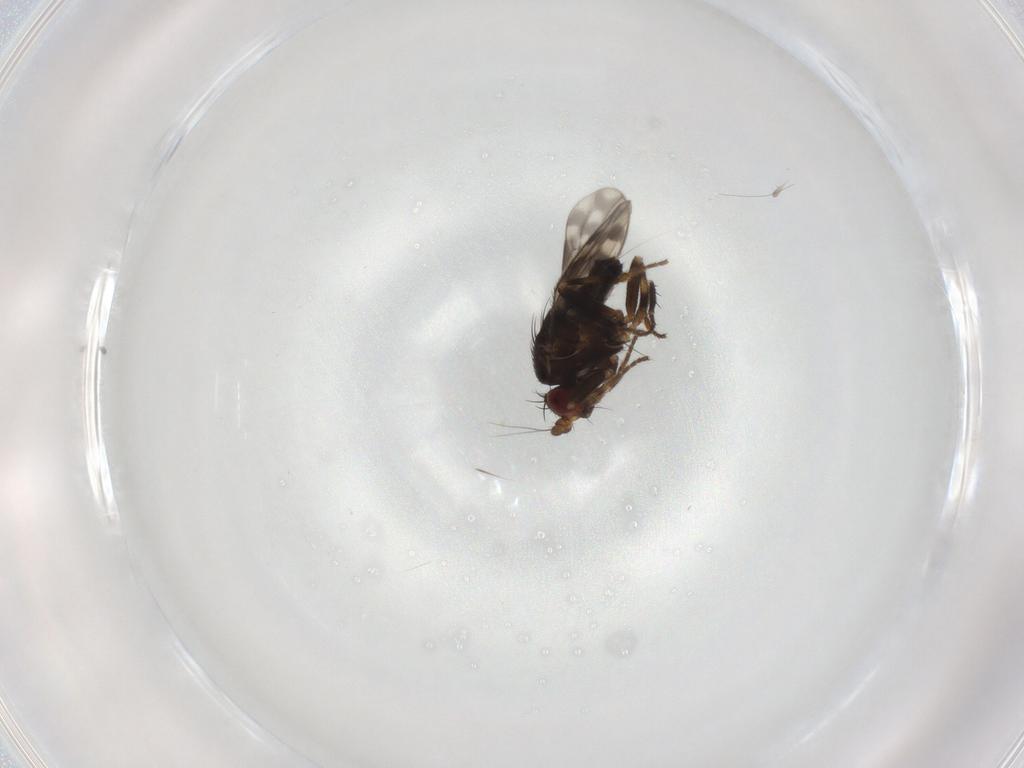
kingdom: Animalia
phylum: Arthropoda
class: Insecta
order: Diptera
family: Sphaeroceridae
